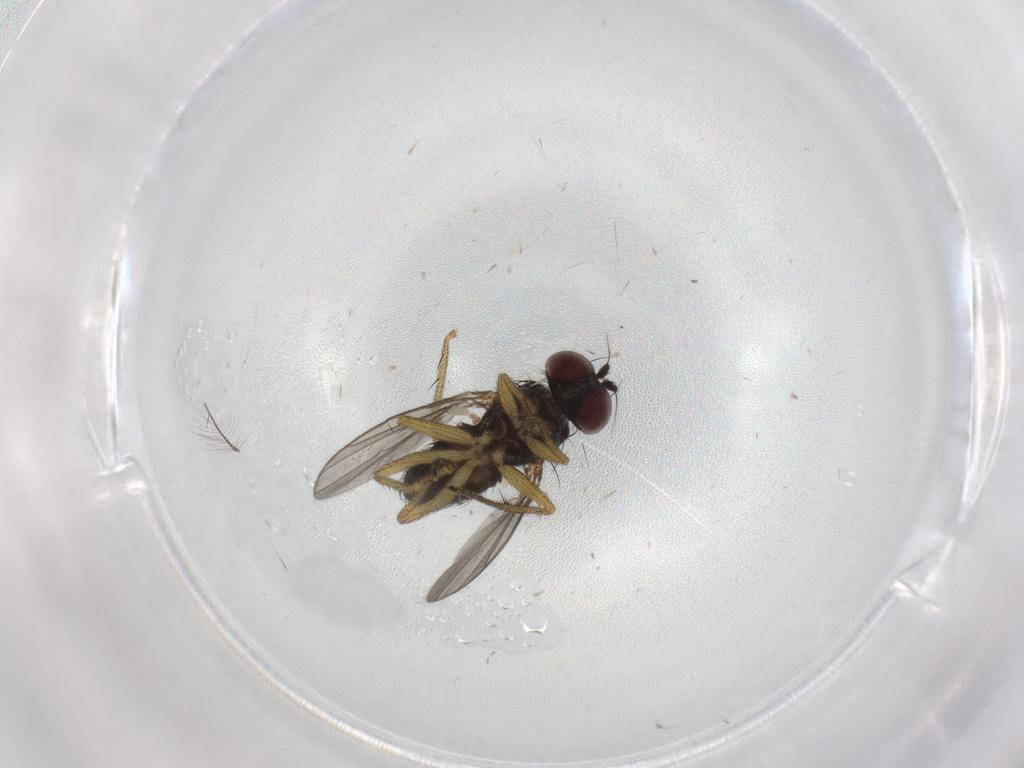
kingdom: Animalia
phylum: Arthropoda
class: Insecta
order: Diptera
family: Dolichopodidae
